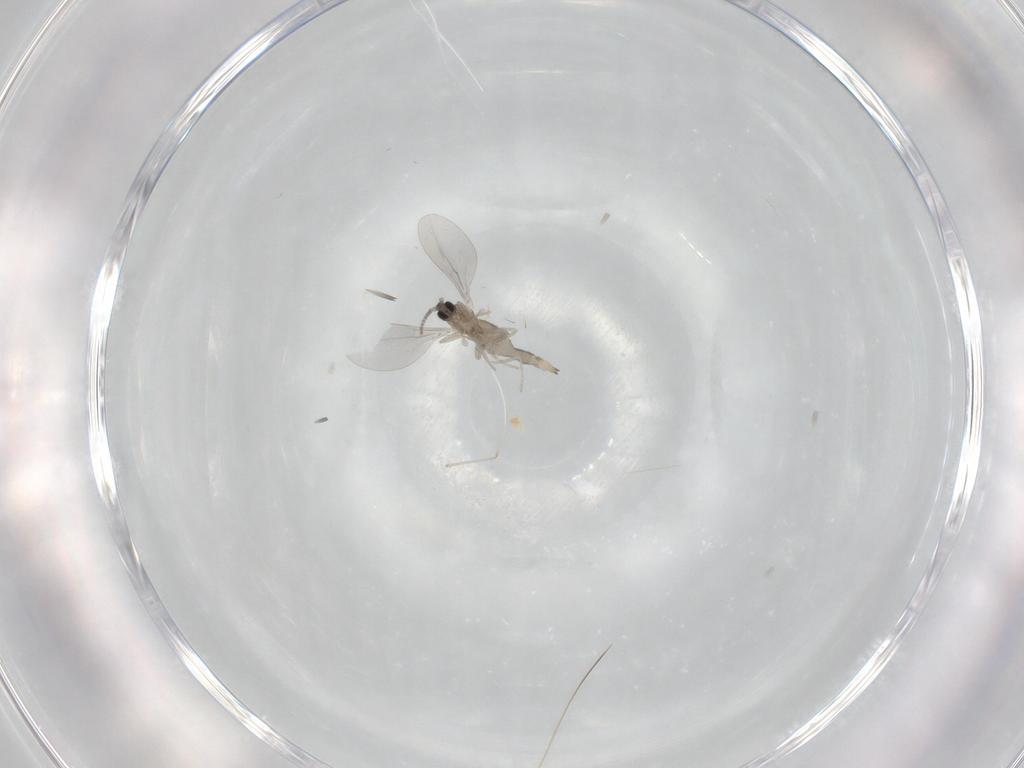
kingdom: Animalia
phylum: Arthropoda
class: Insecta
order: Diptera
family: Cecidomyiidae
